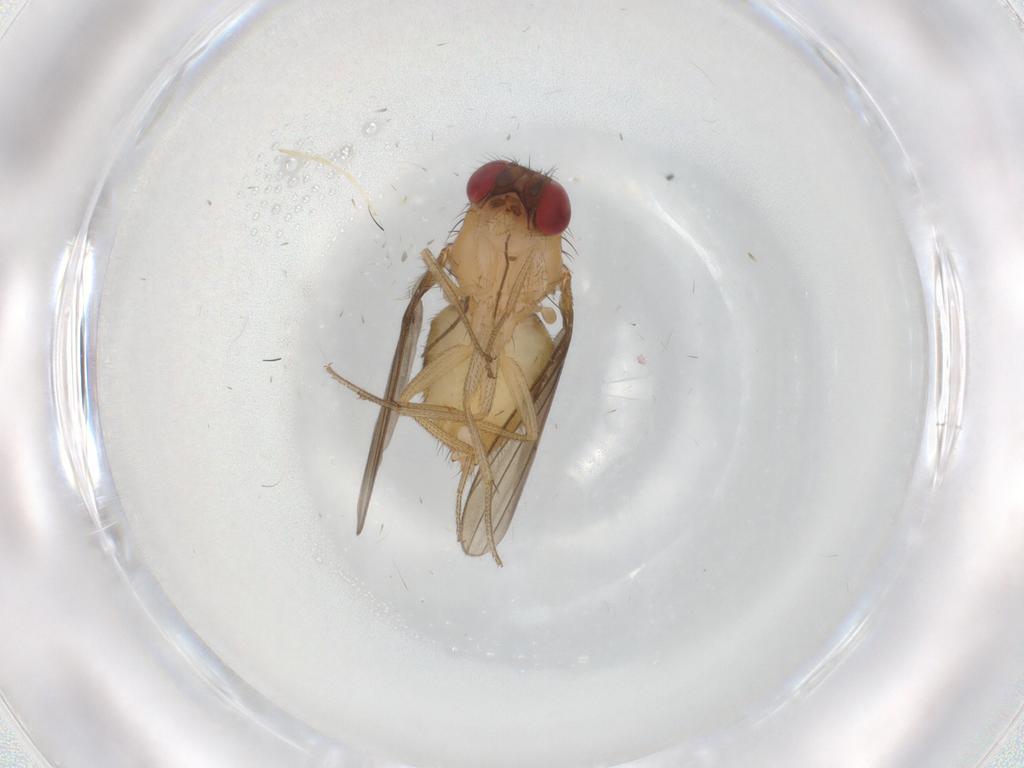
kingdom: Animalia
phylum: Arthropoda
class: Insecta
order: Diptera
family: Drosophilidae
